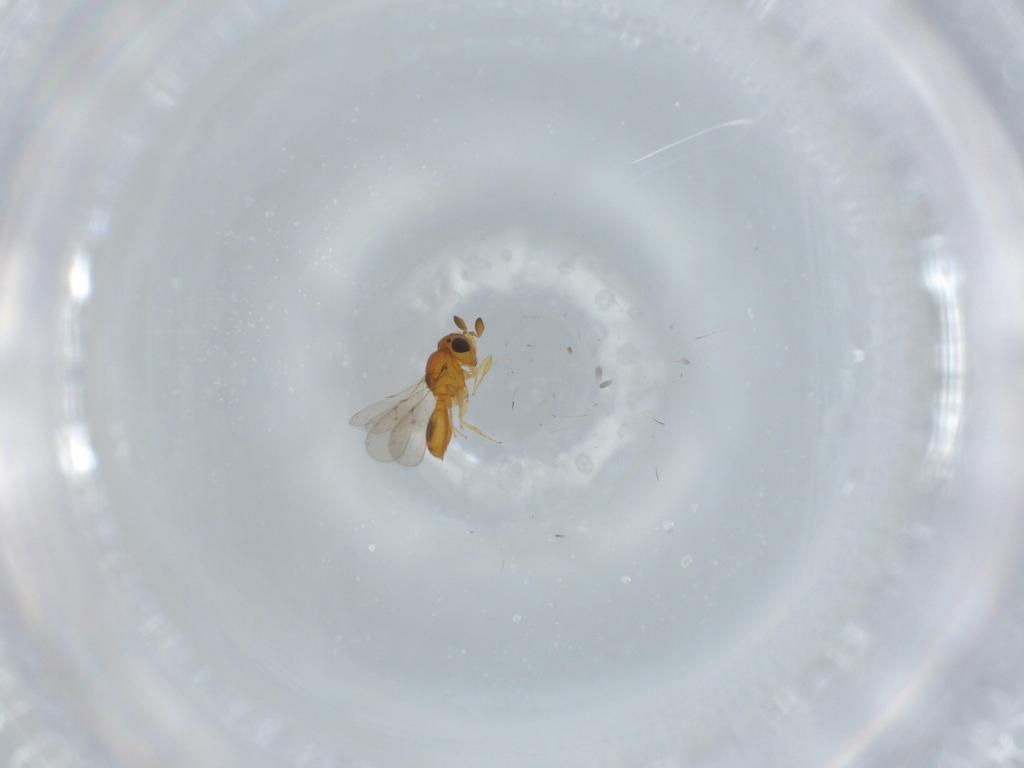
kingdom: Animalia
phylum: Arthropoda
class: Insecta
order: Hymenoptera
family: Scelionidae
